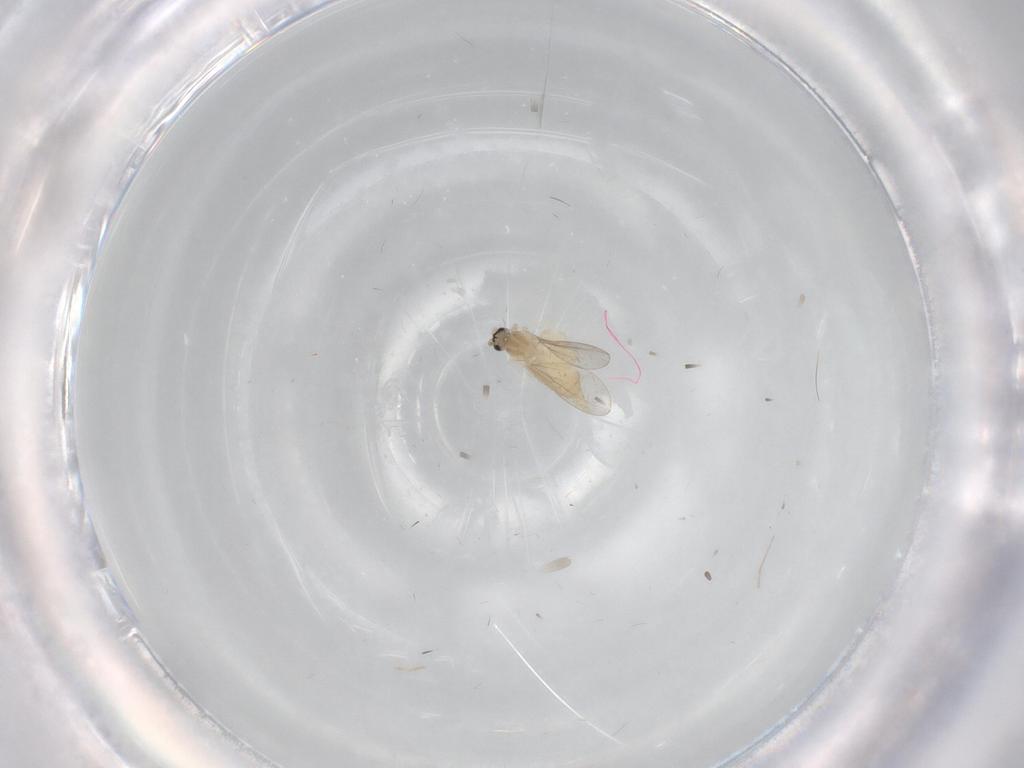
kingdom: Animalia
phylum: Arthropoda
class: Insecta
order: Diptera
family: Cecidomyiidae
